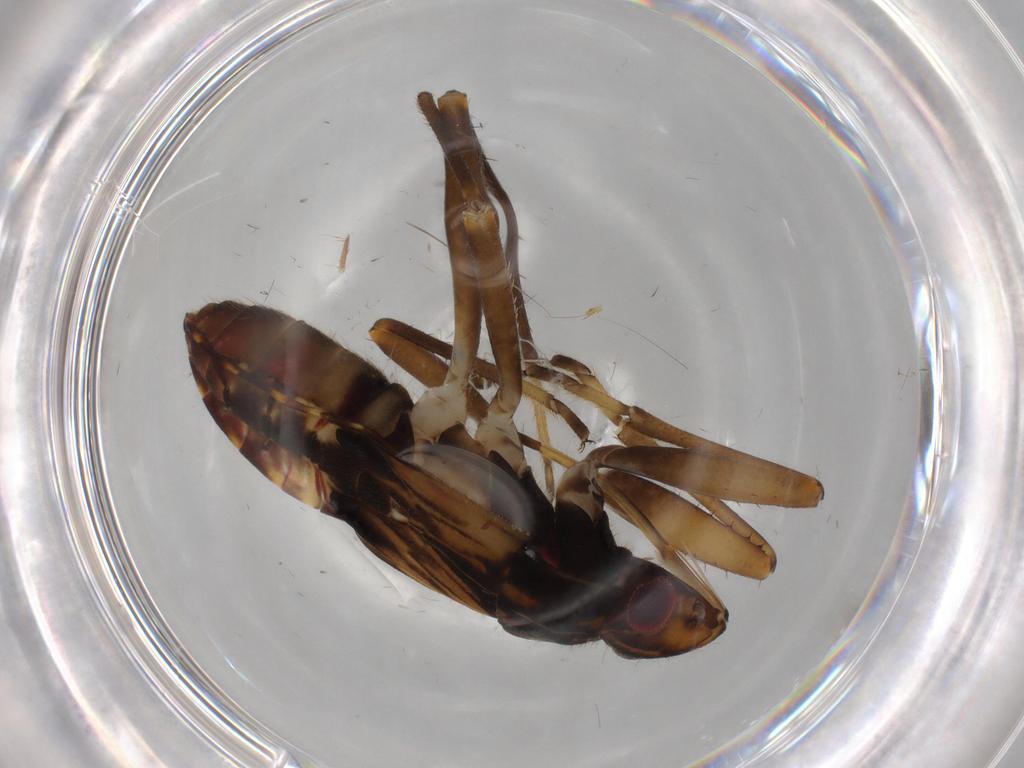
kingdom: Animalia
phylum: Arthropoda
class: Insecta
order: Hemiptera
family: Rhyparochromidae
